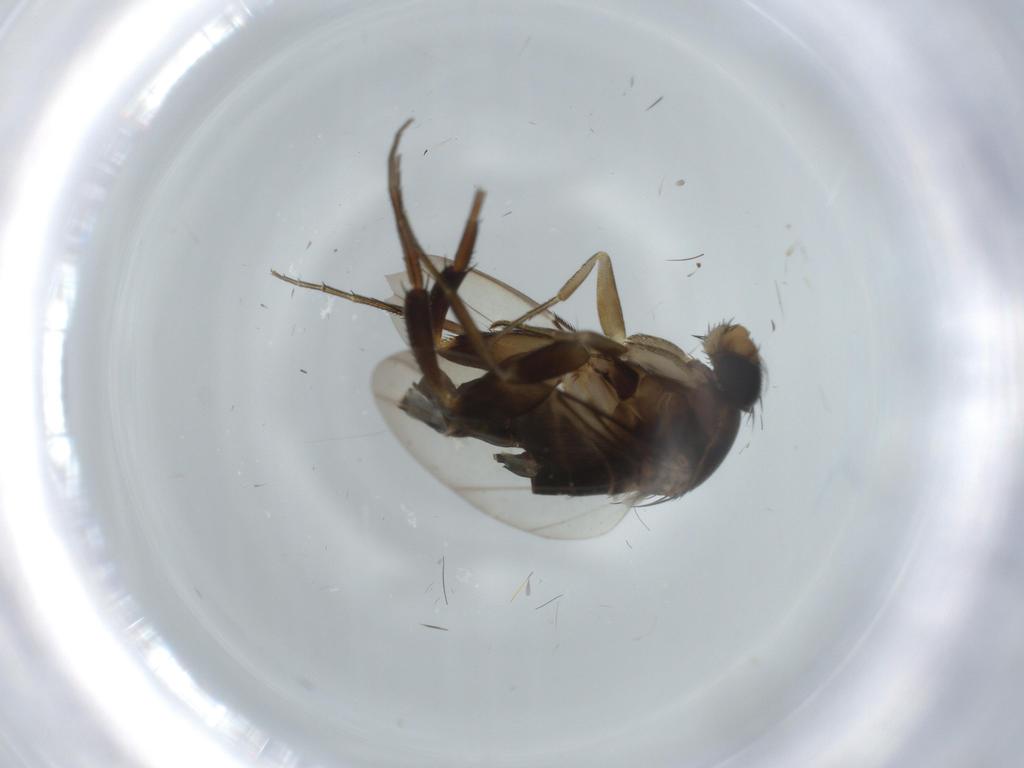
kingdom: Animalia
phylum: Arthropoda
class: Insecta
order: Diptera
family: Phoridae
